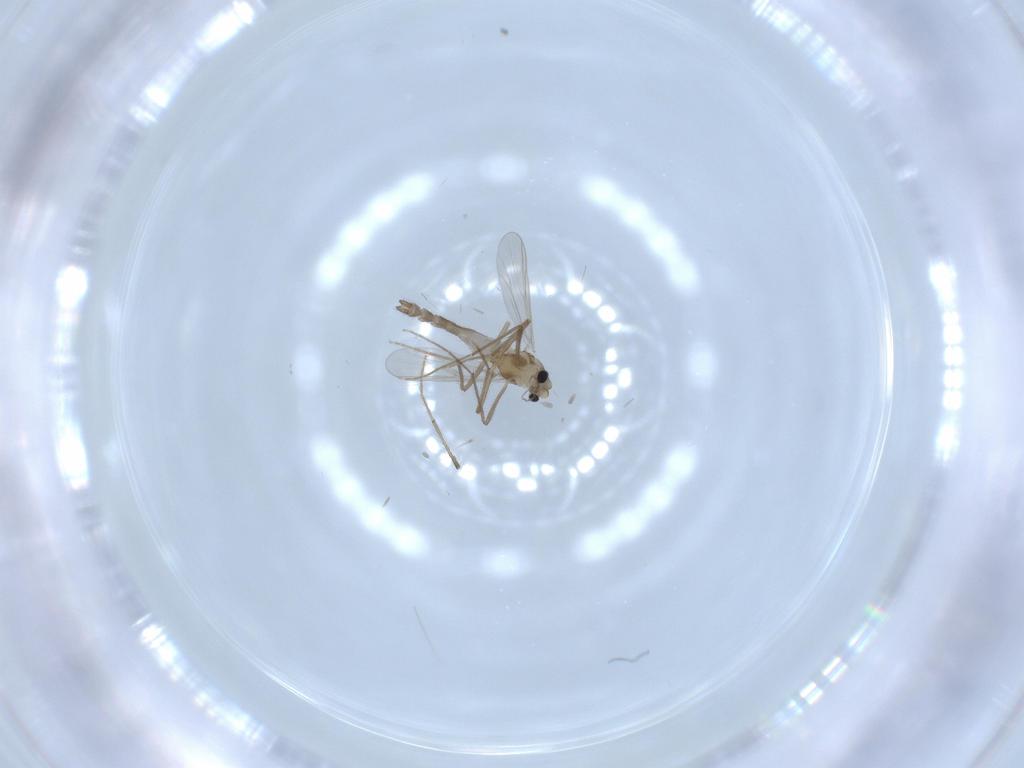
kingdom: Animalia
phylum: Arthropoda
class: Insecta
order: Diptera
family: Chironomidae
